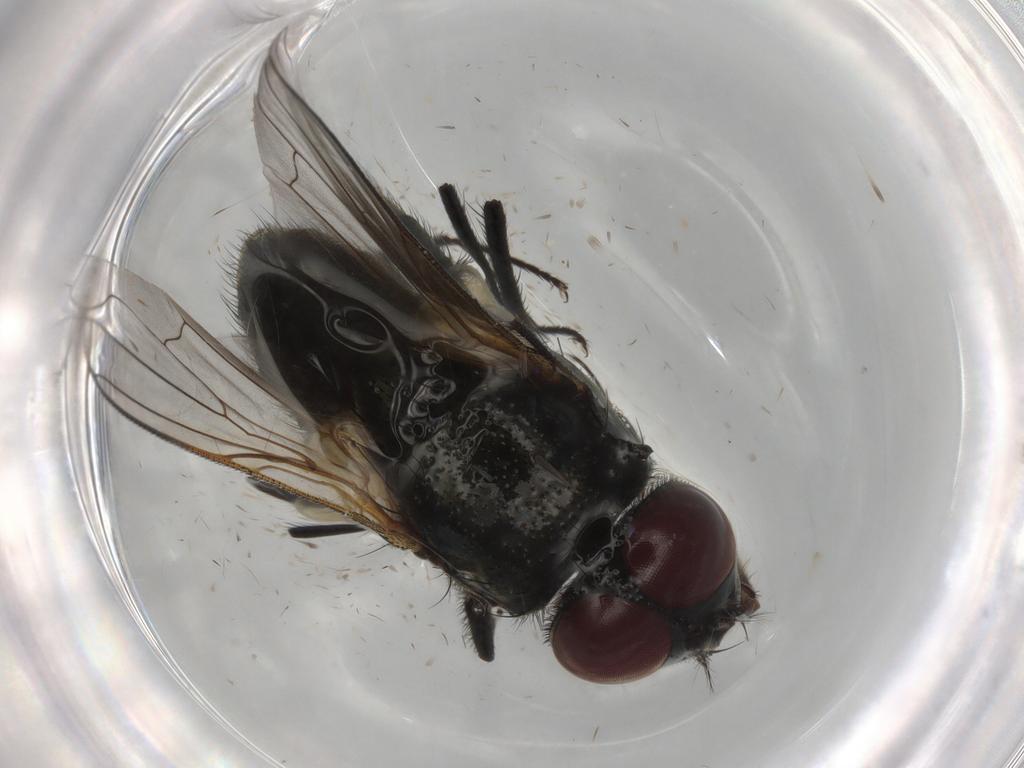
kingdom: Animalia
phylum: Arthropoda
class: Insecta
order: Diptera
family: Muscidae
